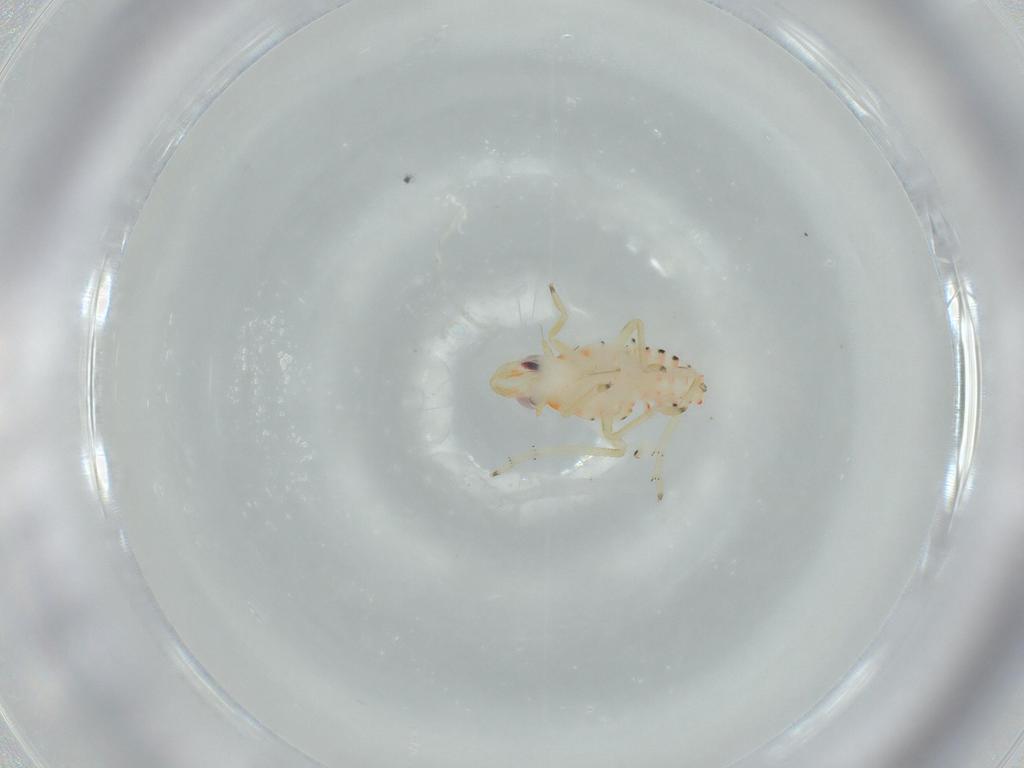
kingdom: Animalia
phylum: Arthropoda
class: Insecta
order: Hemiptera
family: Tropiduchidae
